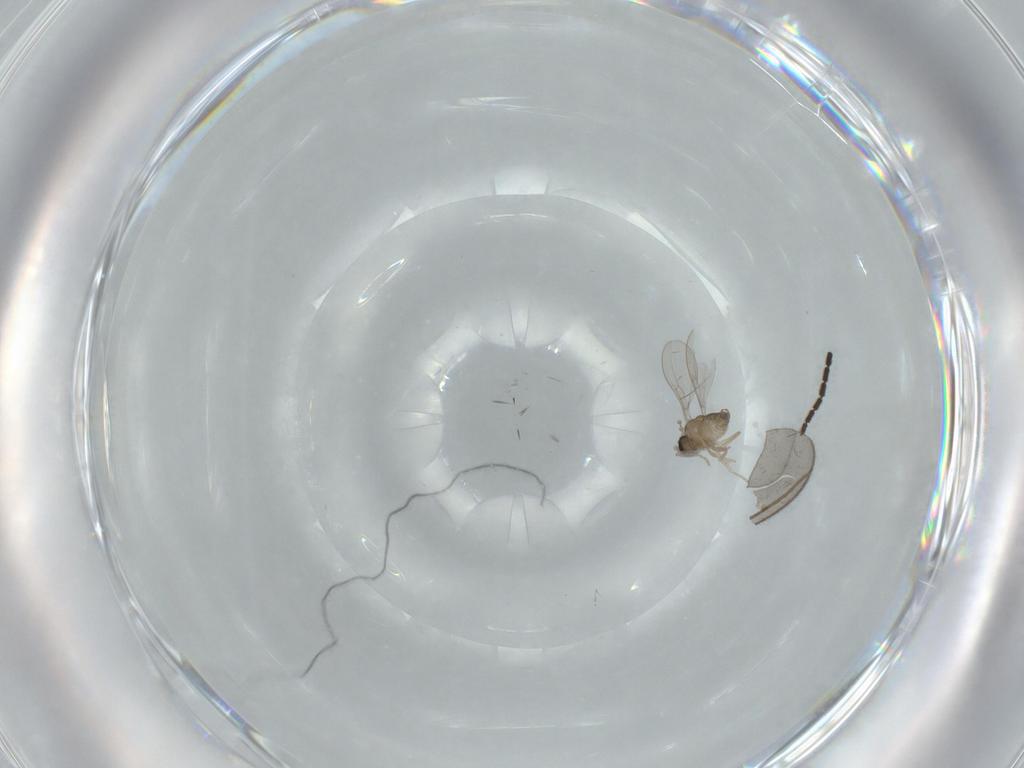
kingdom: Animalia
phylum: Arthropoda
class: Insecta
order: Diptera
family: Cecidomyiidae
